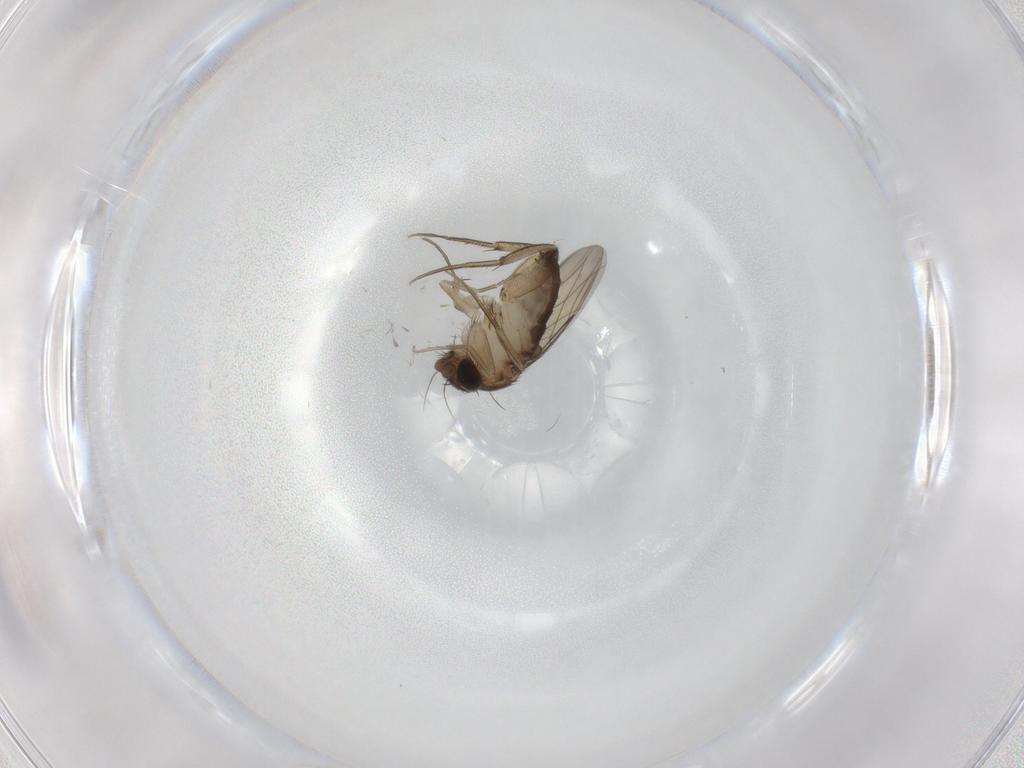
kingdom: Animalia
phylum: Arthropoda
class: Insecta
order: Diptera
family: Phoridae
